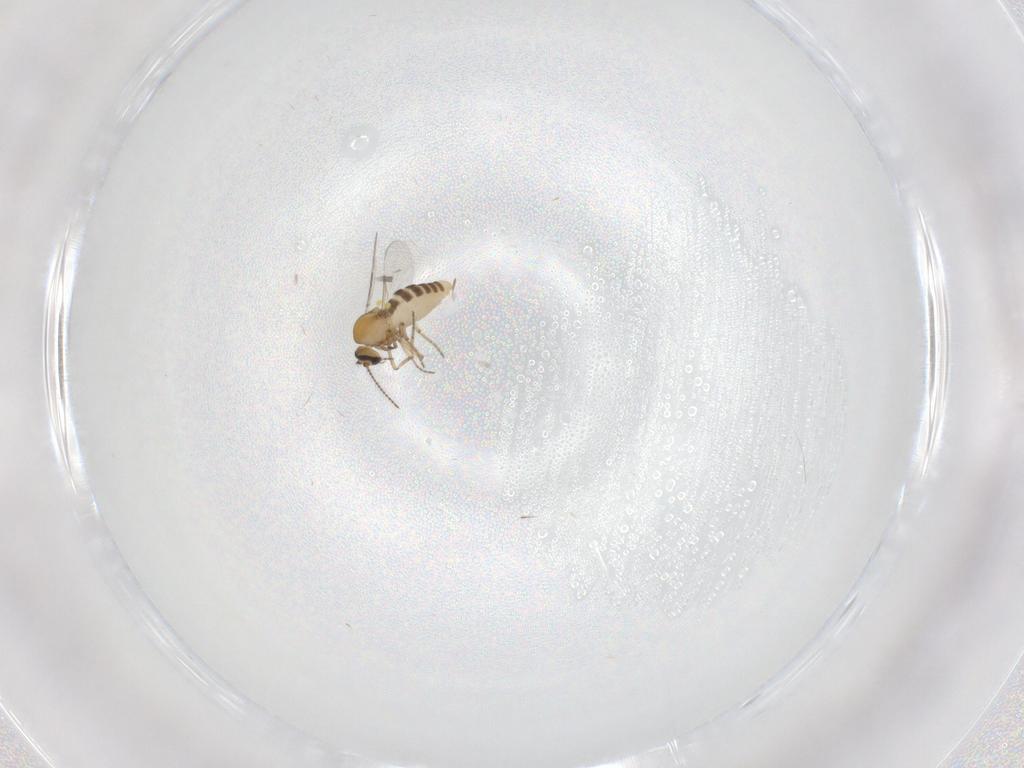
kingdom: Animalia
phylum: Arthropoda
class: Insecta
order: Diptera
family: Ceratopogonidae
